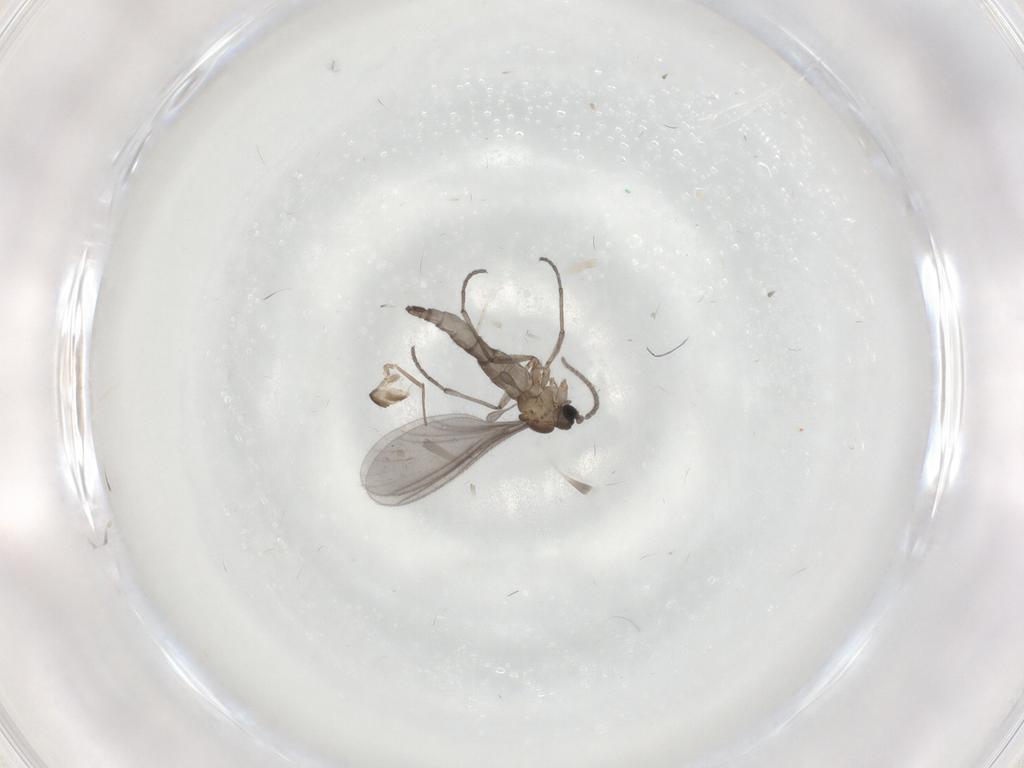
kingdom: Animalia
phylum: Arthropoda
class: Insecta
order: Diptera
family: Sciaridae
